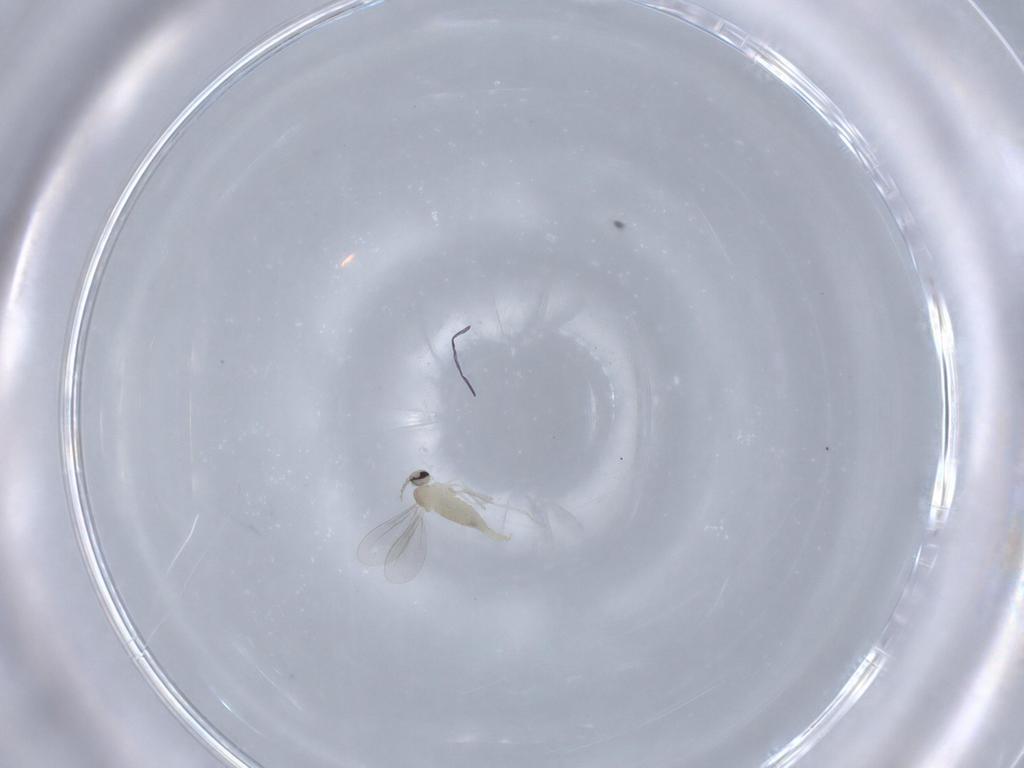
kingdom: Animalia
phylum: Arthropoda
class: Insecta
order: Diptera
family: Cecidomyiidae
